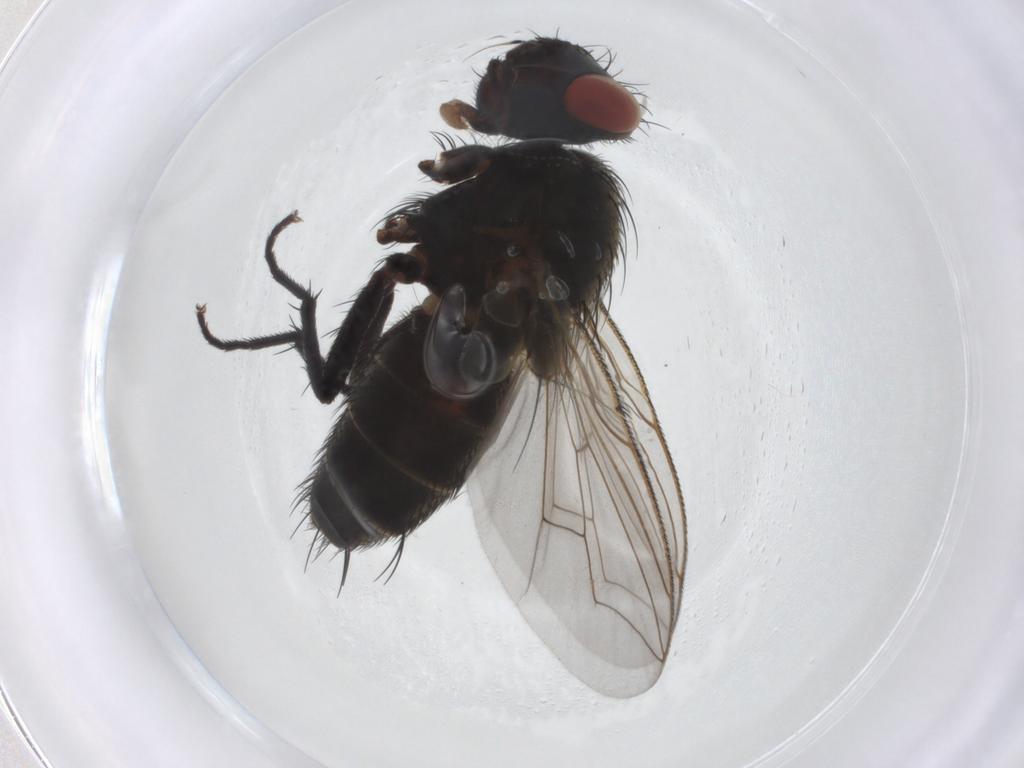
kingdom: Animalia
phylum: Arthropoda
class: Insecta
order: Diptera
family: Sarcophagidae
